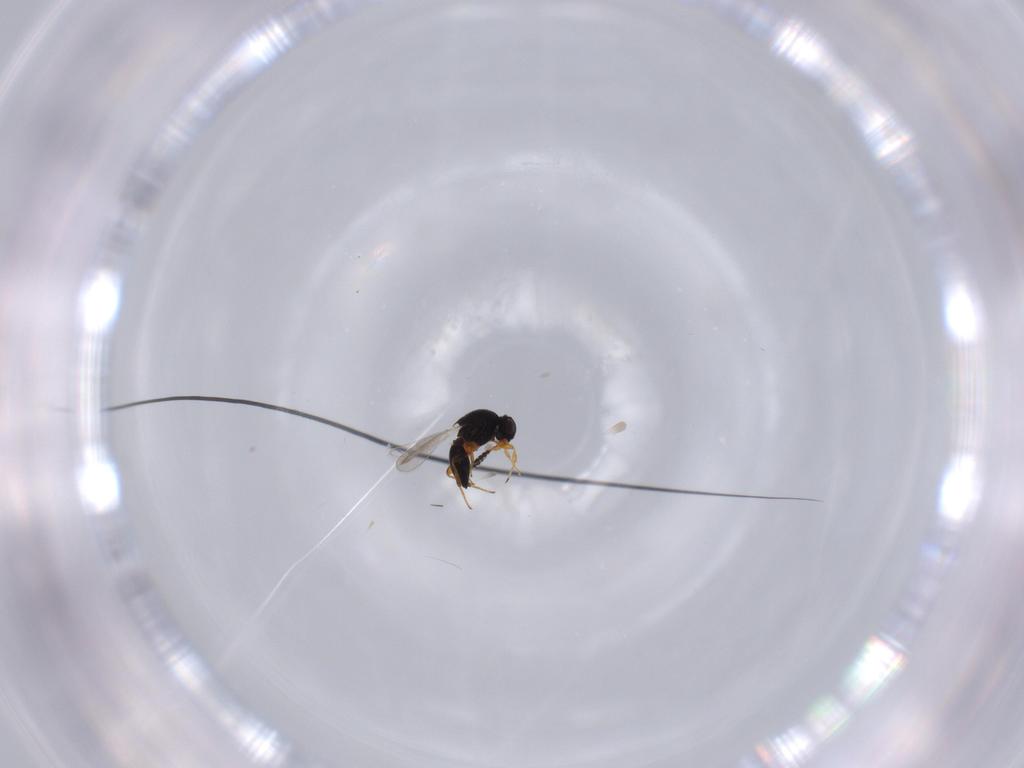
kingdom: Animalia
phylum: Arthropoda
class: Insecta
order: Hymenoptera
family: Platygastridae
